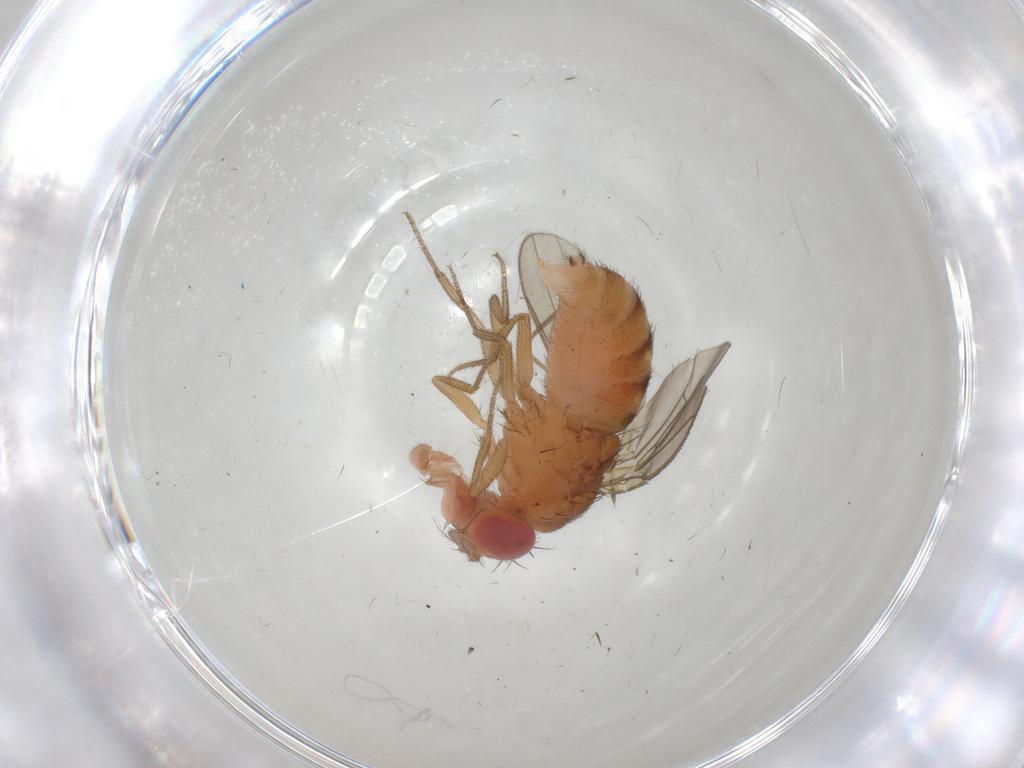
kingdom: Animalia
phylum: Arthropoda
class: Insecta
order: Diptera
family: Drosophilidae
